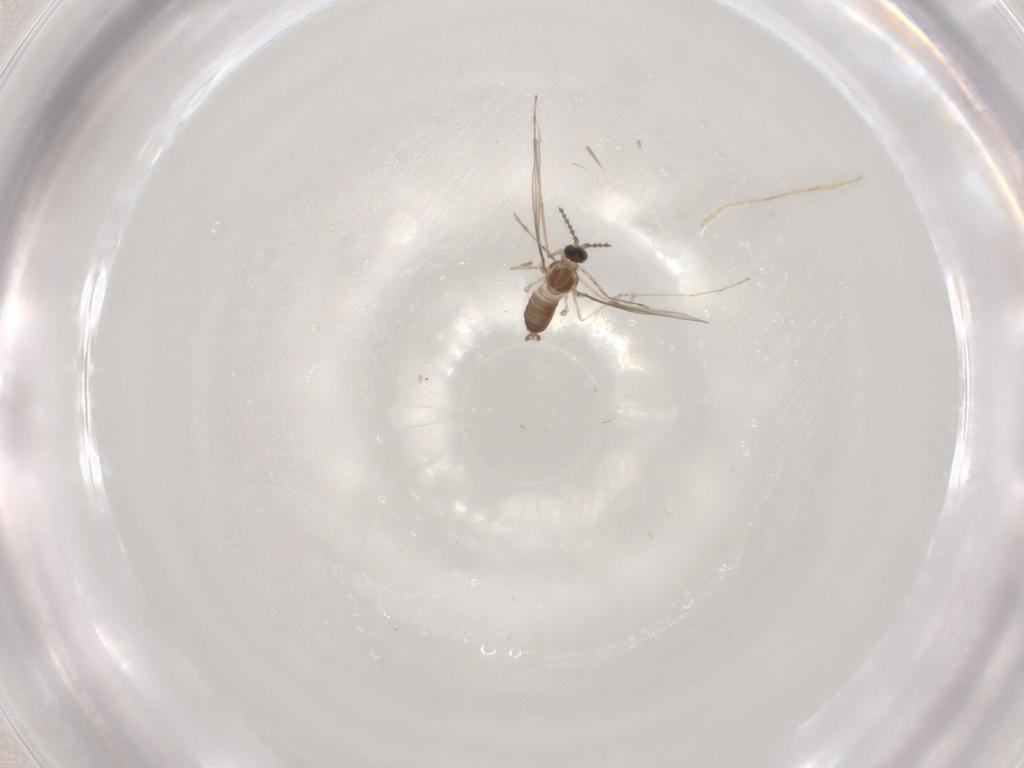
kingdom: Animalia
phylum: Arthropoda
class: Insecta
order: Diptera
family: Cecidomyiidae
